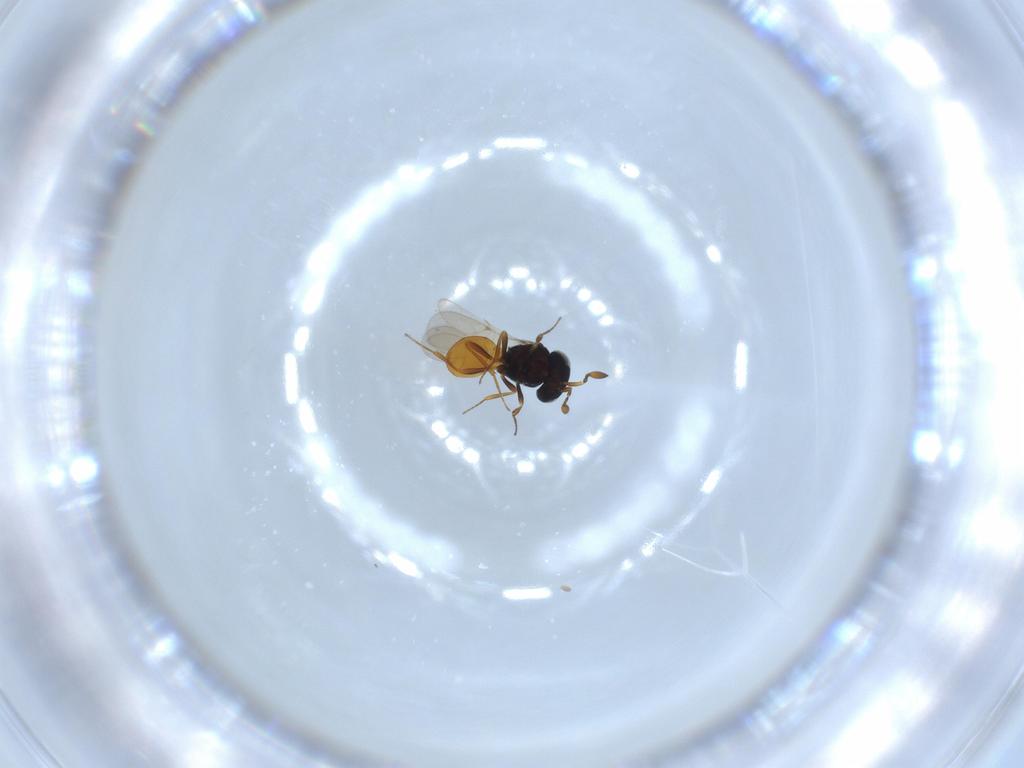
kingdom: Animalia
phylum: Arthropoda
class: Insecta
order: Hymenoptera
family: Scelionidae
